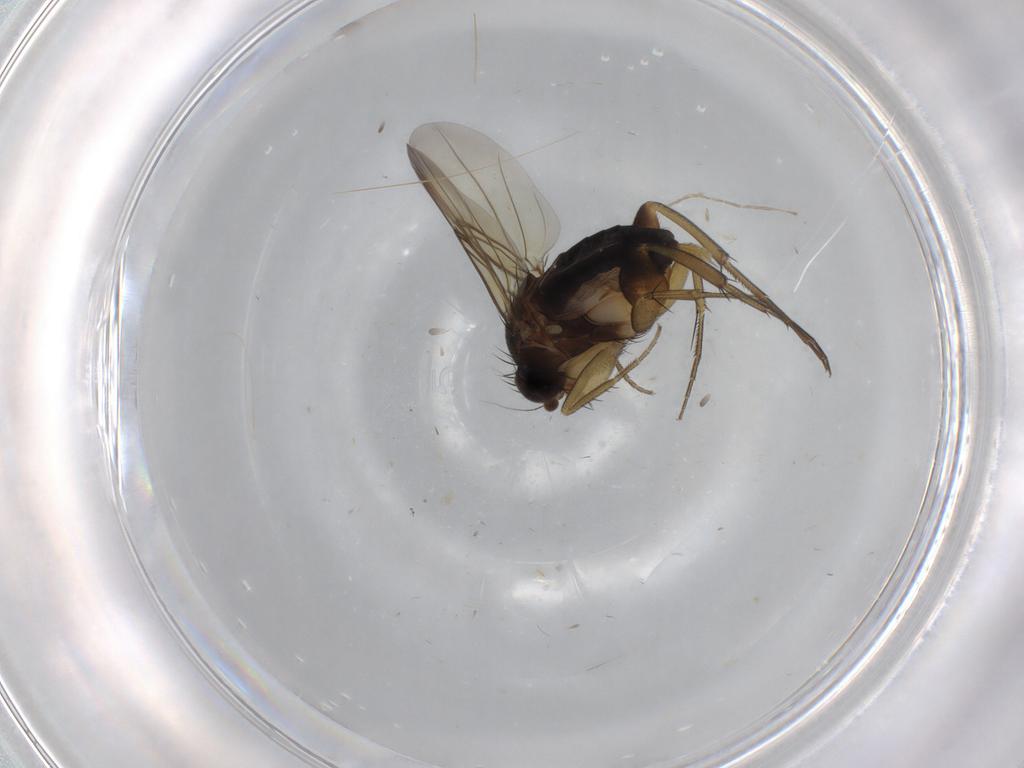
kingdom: Animalia
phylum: Arthropoda
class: Insecta
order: Diptera
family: Phoridae
